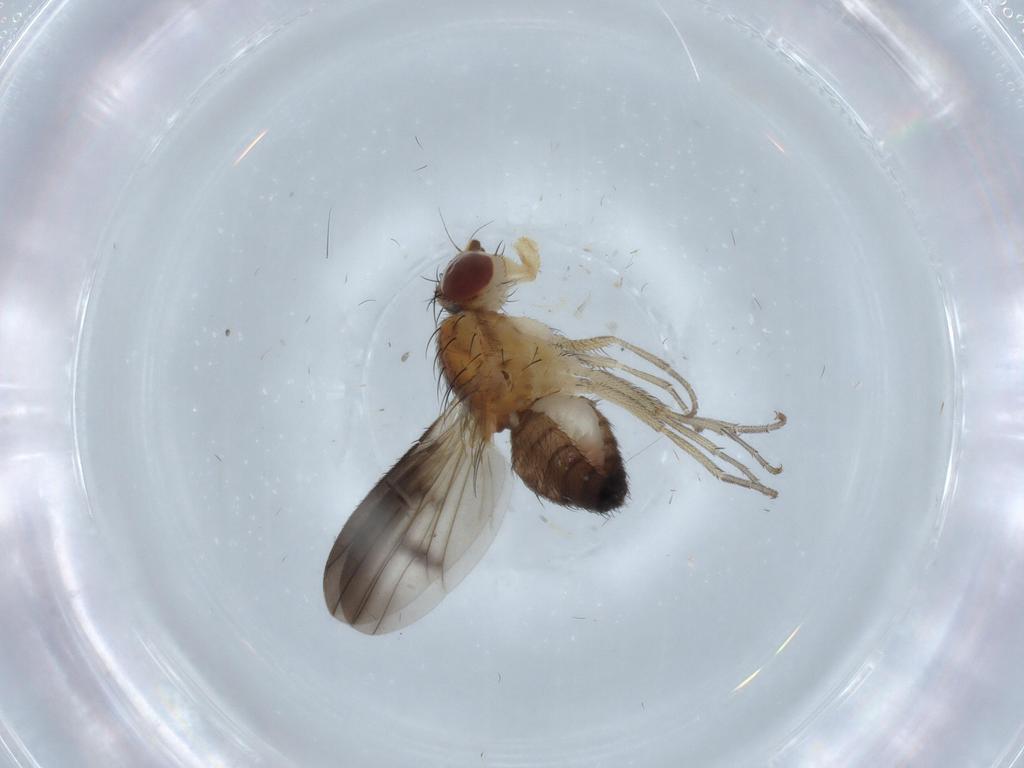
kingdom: Animalia
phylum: Arthropoda
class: Insecta
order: Diptera
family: Heleomyzidae
